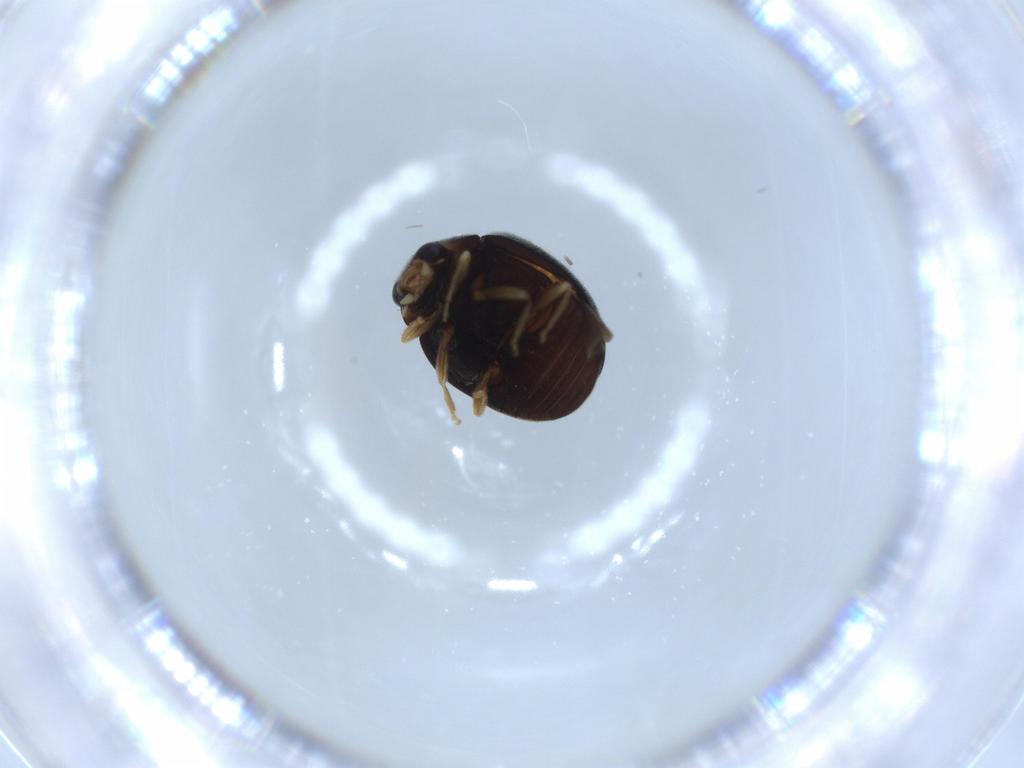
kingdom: Animalia
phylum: Arthropoda
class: Insecta
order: Coleoptera
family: Coccinellidae
